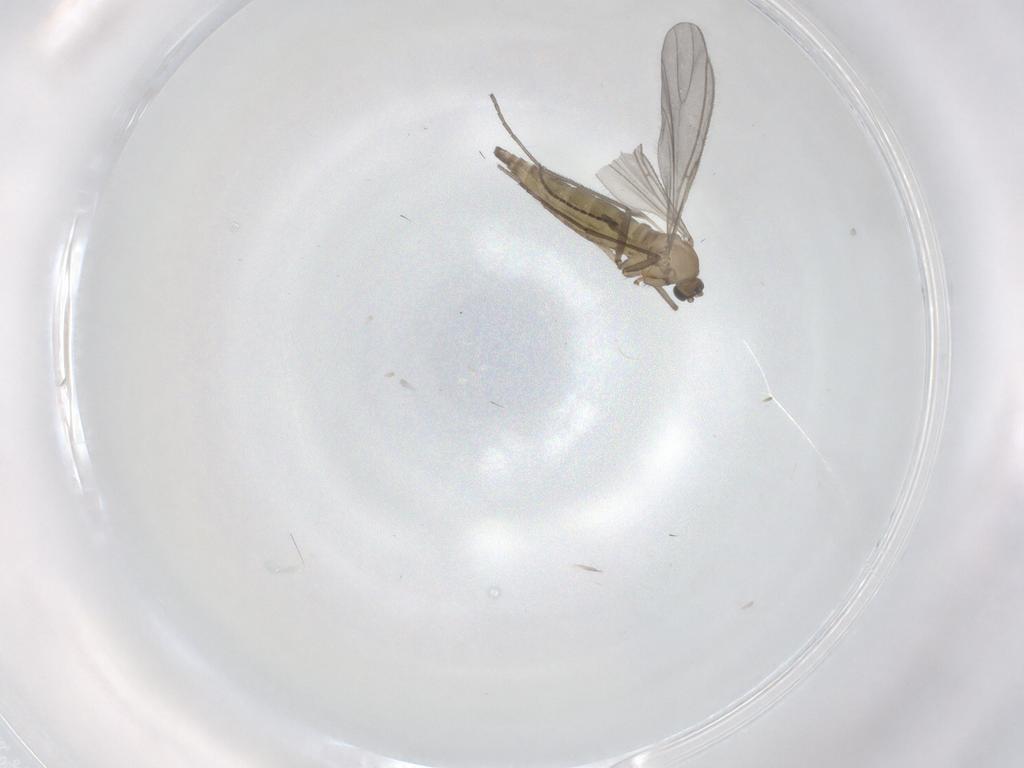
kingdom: Animalia
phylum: Arthropoda
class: Insecta
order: Diptera
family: Sciaridae
